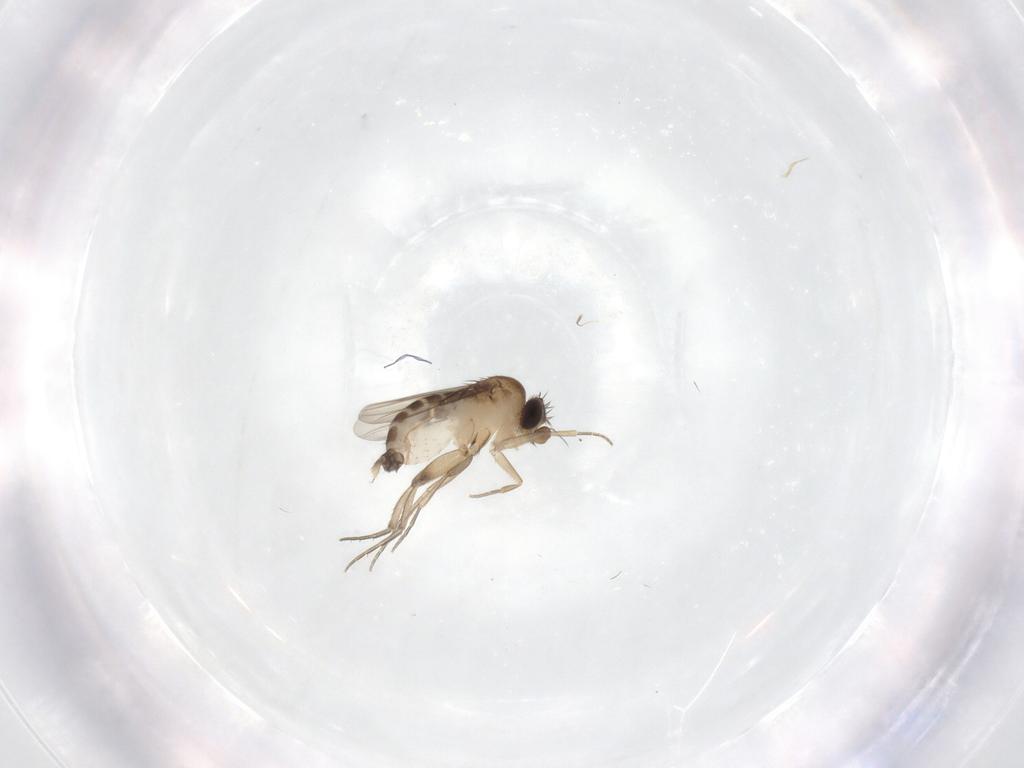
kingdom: Animalia
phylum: Arthropoda
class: Insecta
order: Diptera
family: Phoridae
